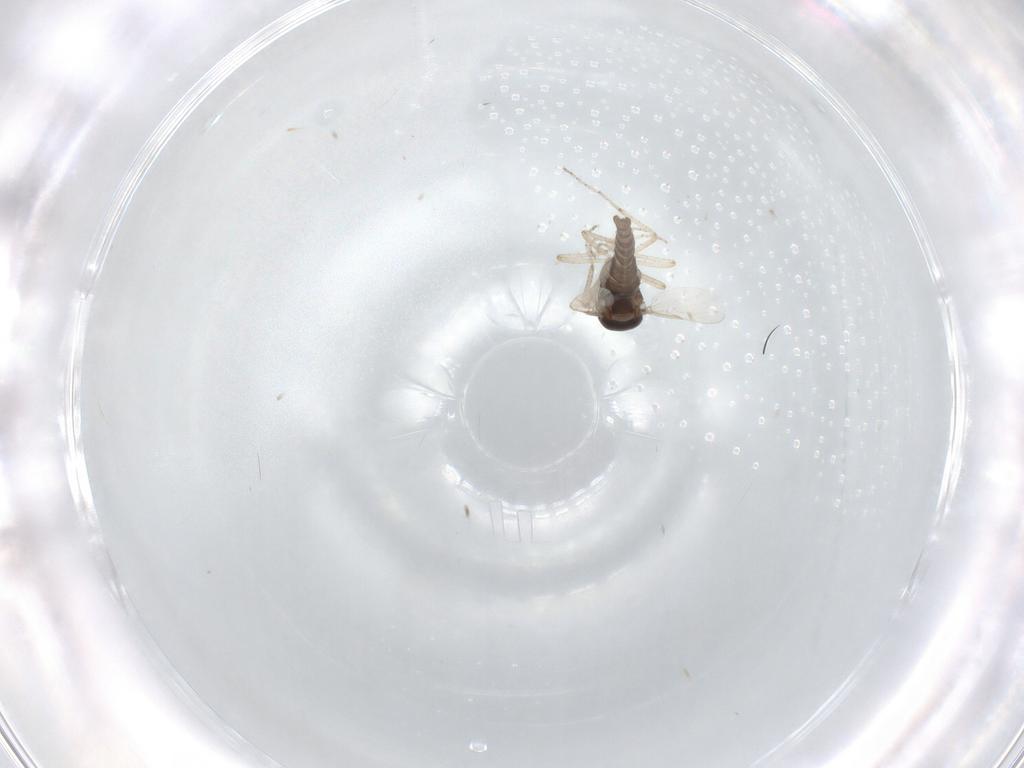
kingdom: Animalia
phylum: Arthropoda
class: Insecta
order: Diptera
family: Ceratopogonidae
